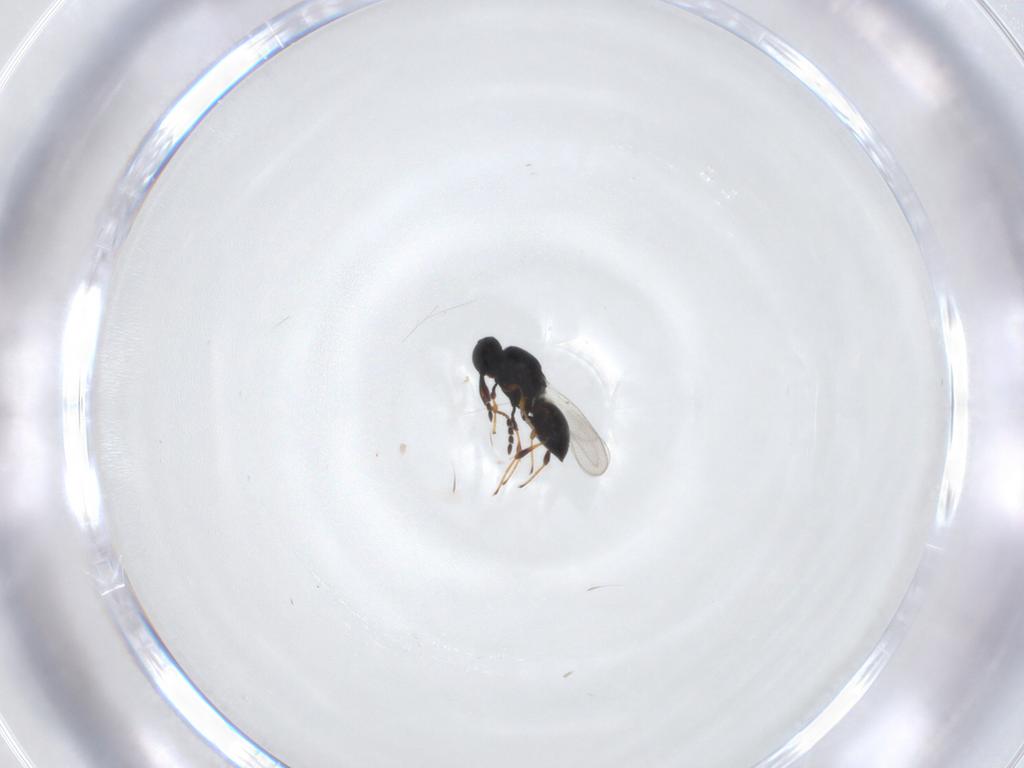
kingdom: Animalia
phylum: Arthropoda
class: Insecta
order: Hymenoptera
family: Platygastridae
